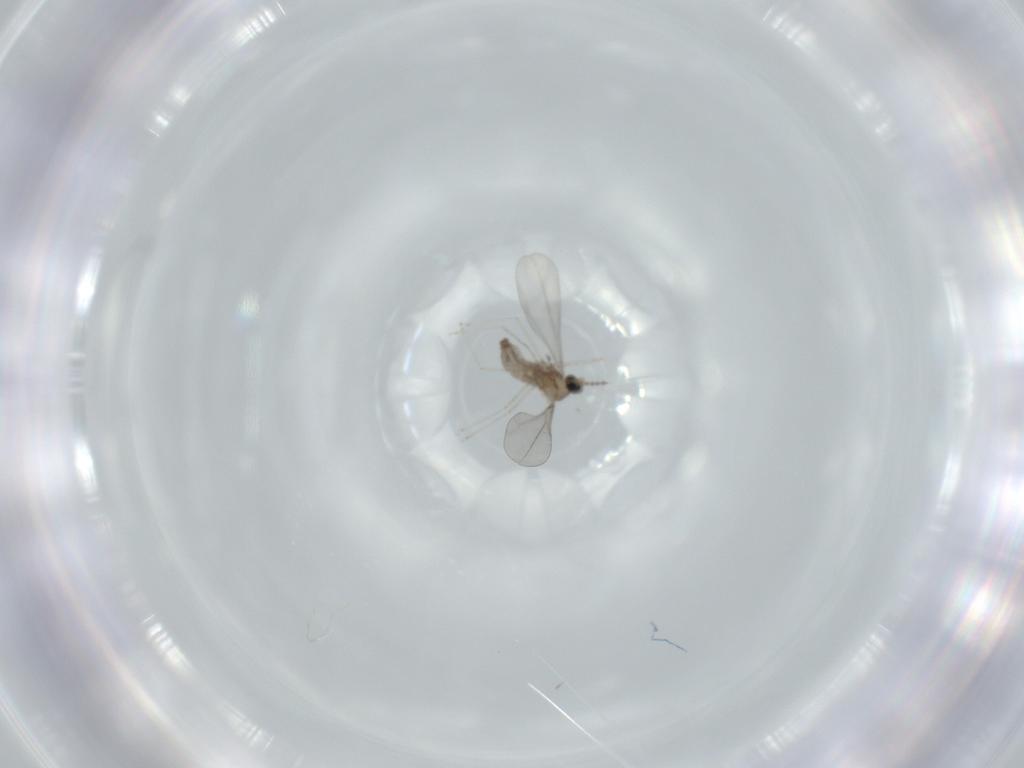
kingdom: Animalia
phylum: Arthropoda
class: Insecta
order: Diptera
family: Cecidomyiidae
